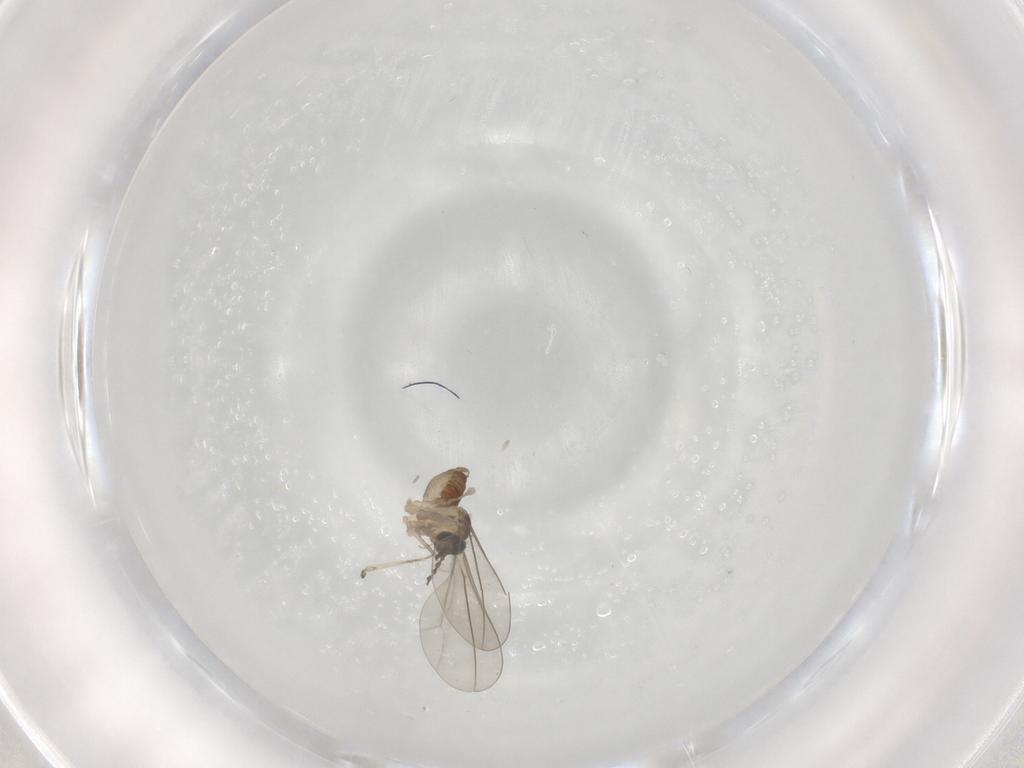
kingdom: Animalia
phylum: Arthropoda
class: Insecta
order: Diptera
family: Cecidomyiidae
